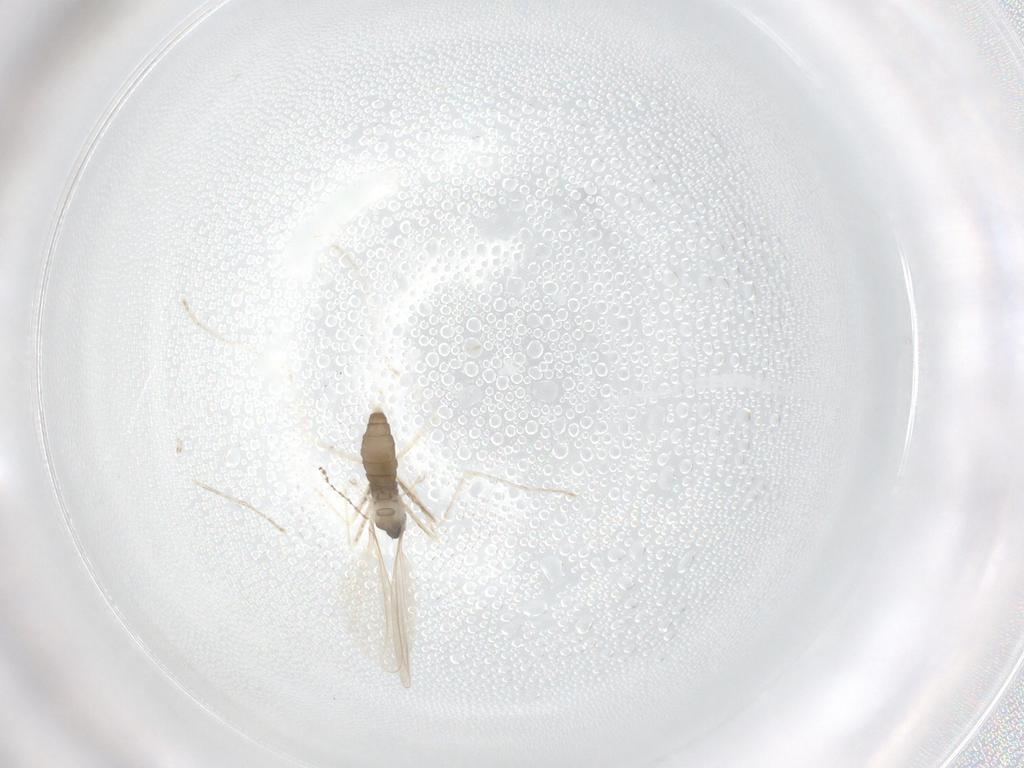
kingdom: Animalia
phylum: Arthropoda
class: Insecta
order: Diptera
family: Cecidomyiidae
